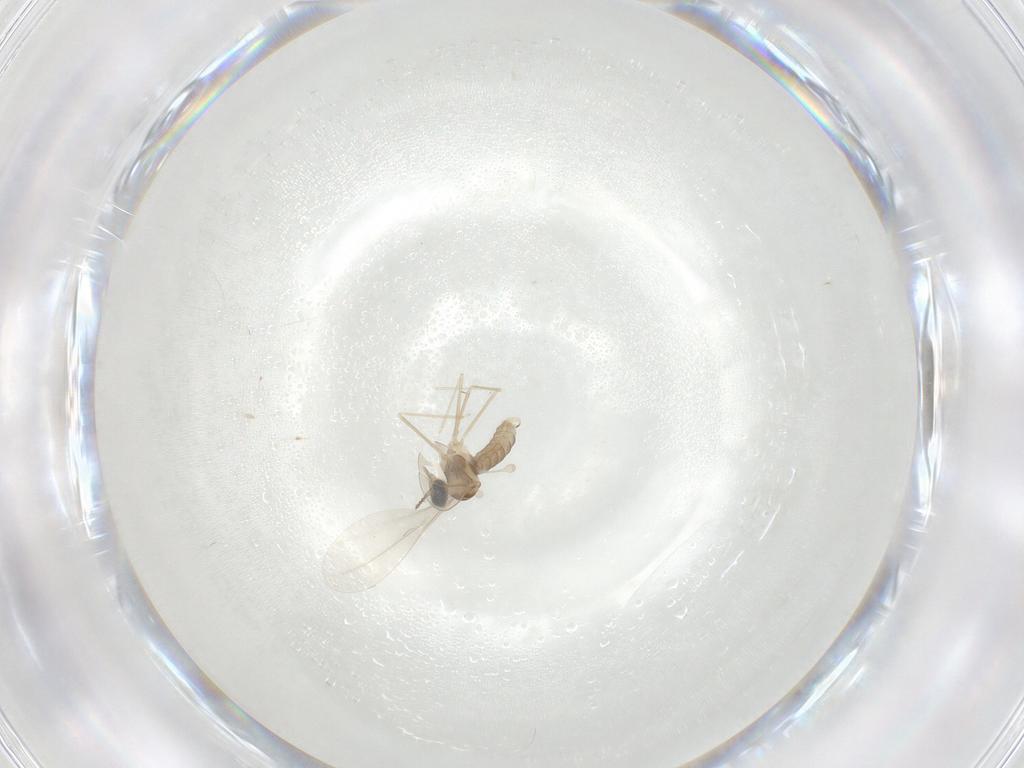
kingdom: Animalia
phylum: Arthropoda
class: Insecta
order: Diptera
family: Cecidomyiidae
